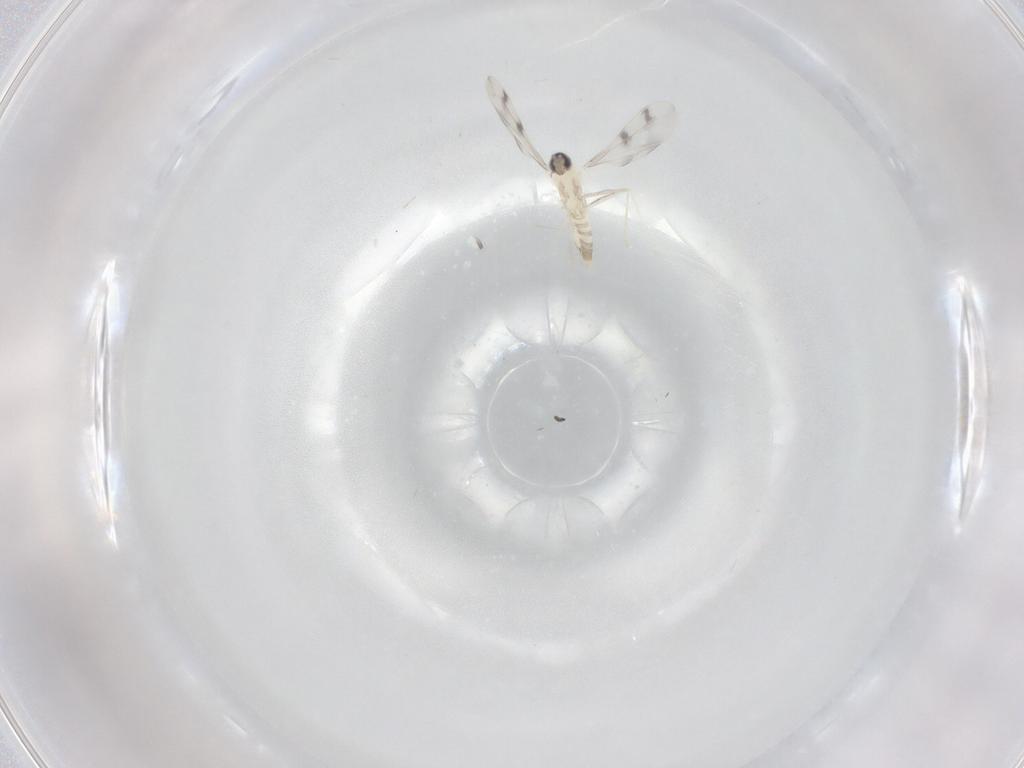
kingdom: Animalia
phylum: Arthropoda
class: Insecta
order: Diptera
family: Cecidomyiidae
